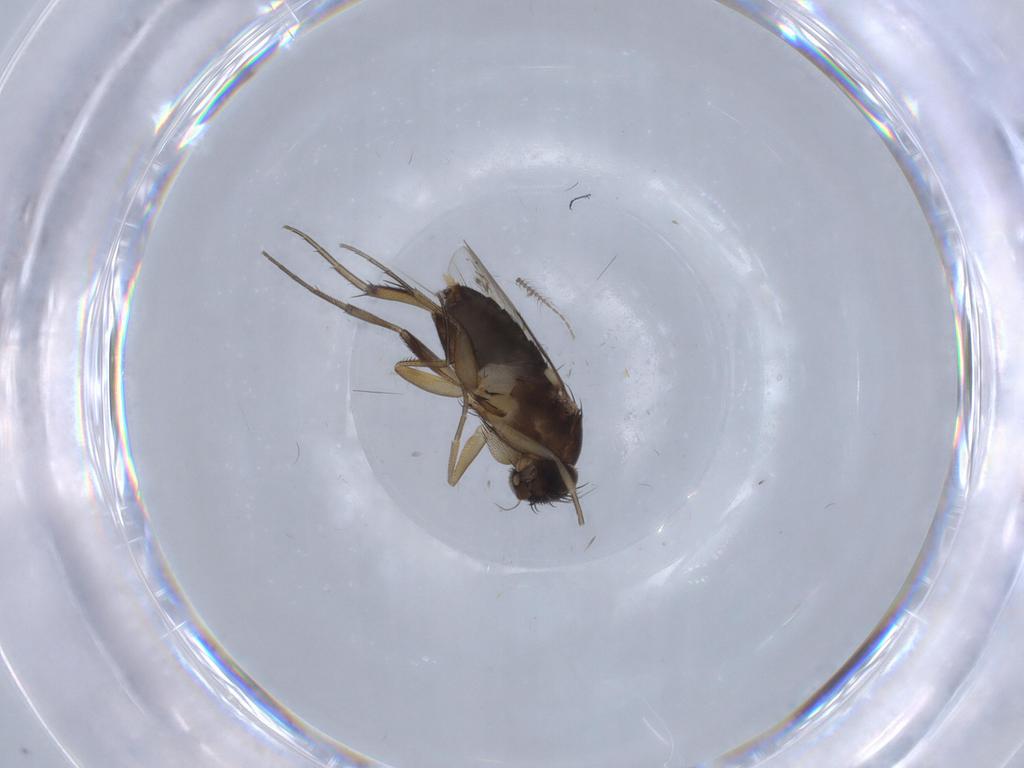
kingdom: Animalia
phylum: Arthropoda
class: Insecta
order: Diptera
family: Phoridae
